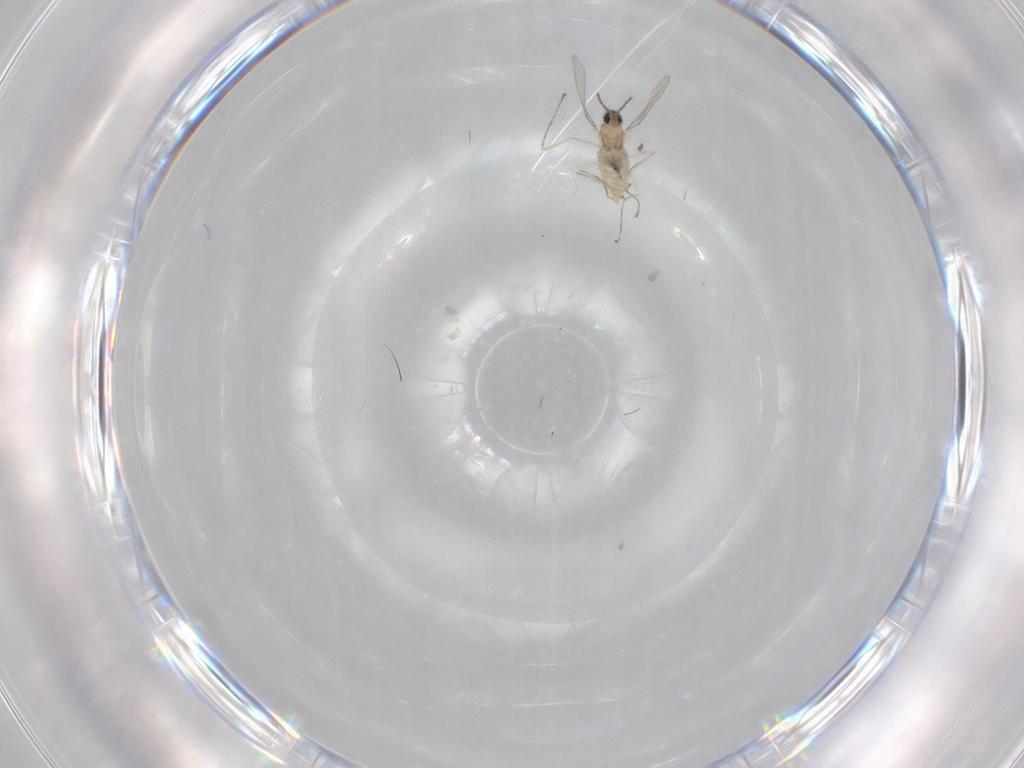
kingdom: Animalia
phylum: Arthropoda
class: Insecta
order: Diptera
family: Cecidomyiidae
